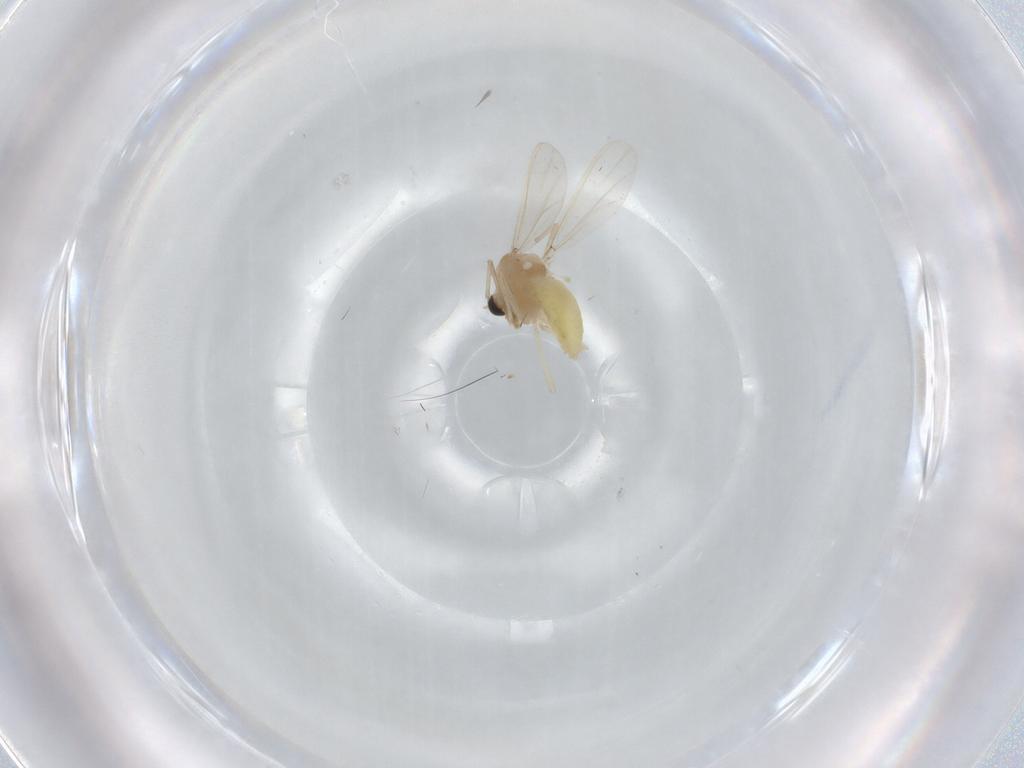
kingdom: Animalia
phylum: Arthropoda
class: Insecta
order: Diptera
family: Chironomidae
